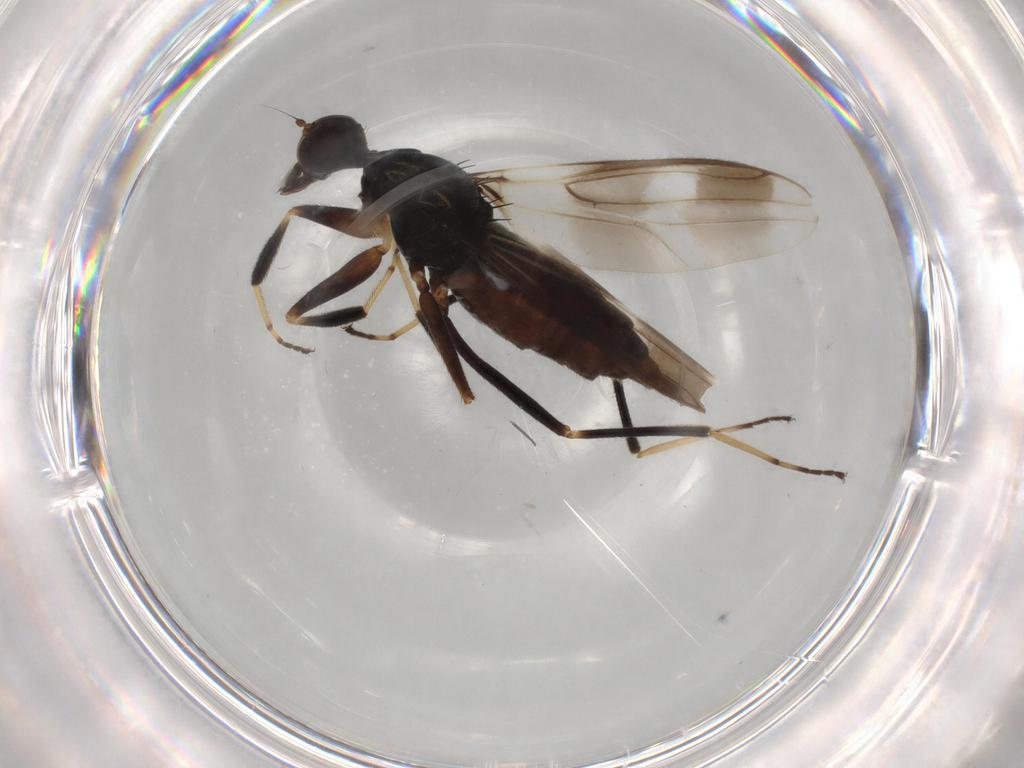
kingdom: Animalia
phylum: Arthropoda
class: Insecta
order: Diptera
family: Hybotidae
